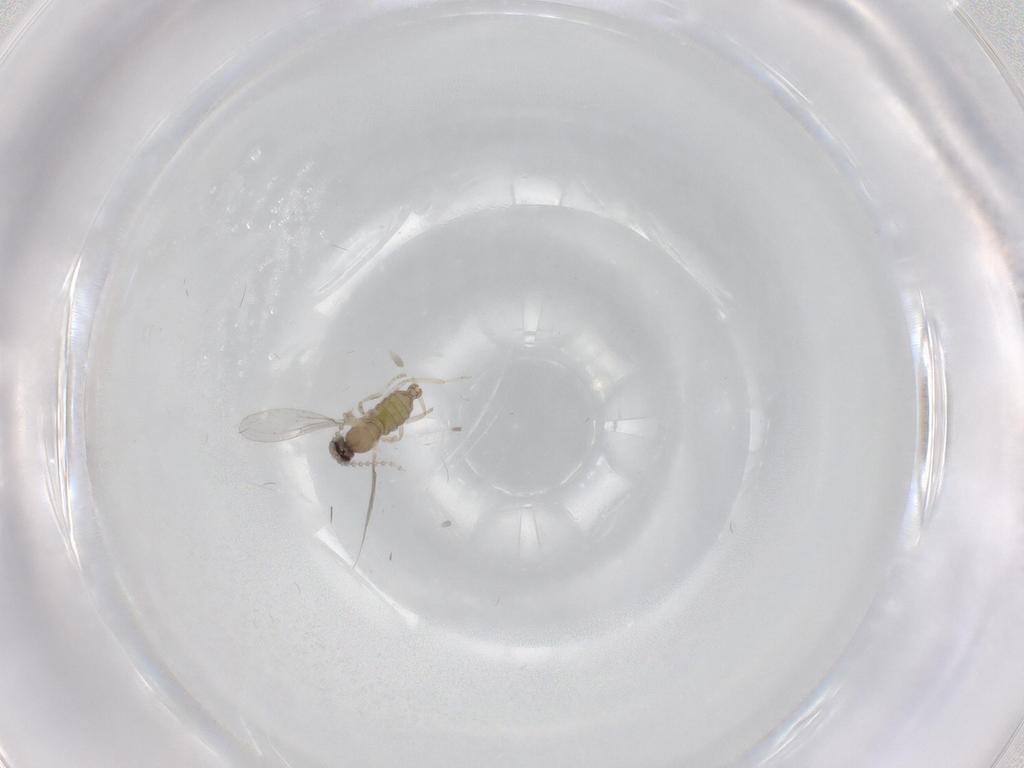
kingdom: Animalia
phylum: Arthropoda
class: Insecta
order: Diptera
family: Cecidomyiidae
